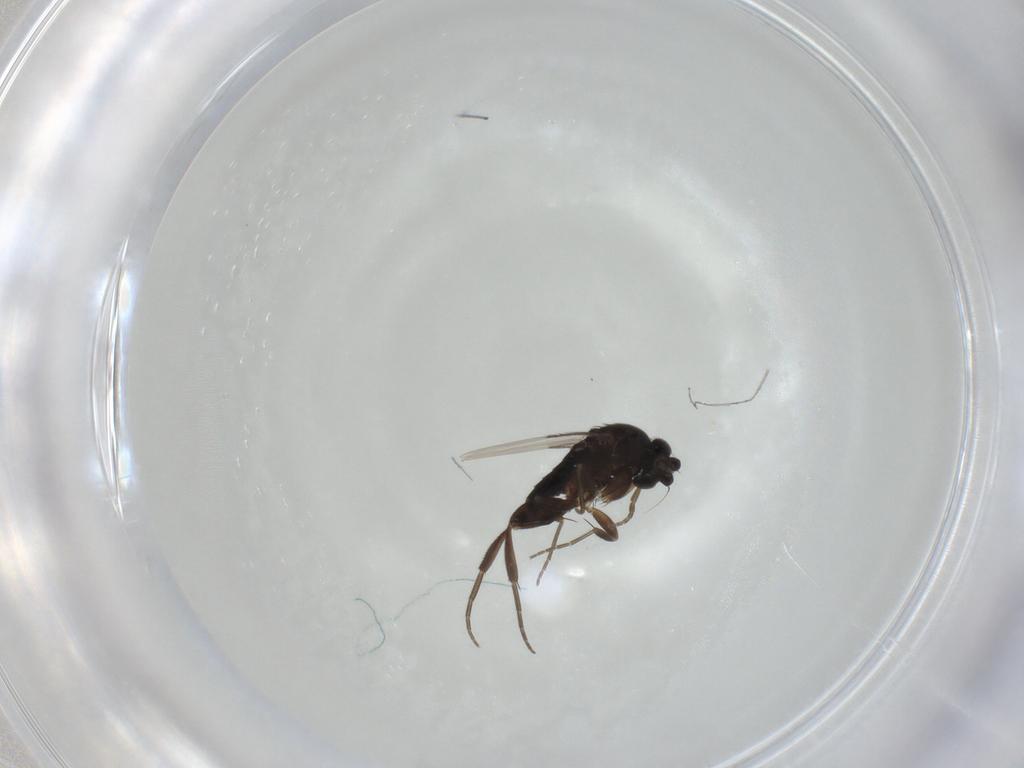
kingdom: Animalia
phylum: Arthropoda
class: Insecta
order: Diptera
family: Phoridae
